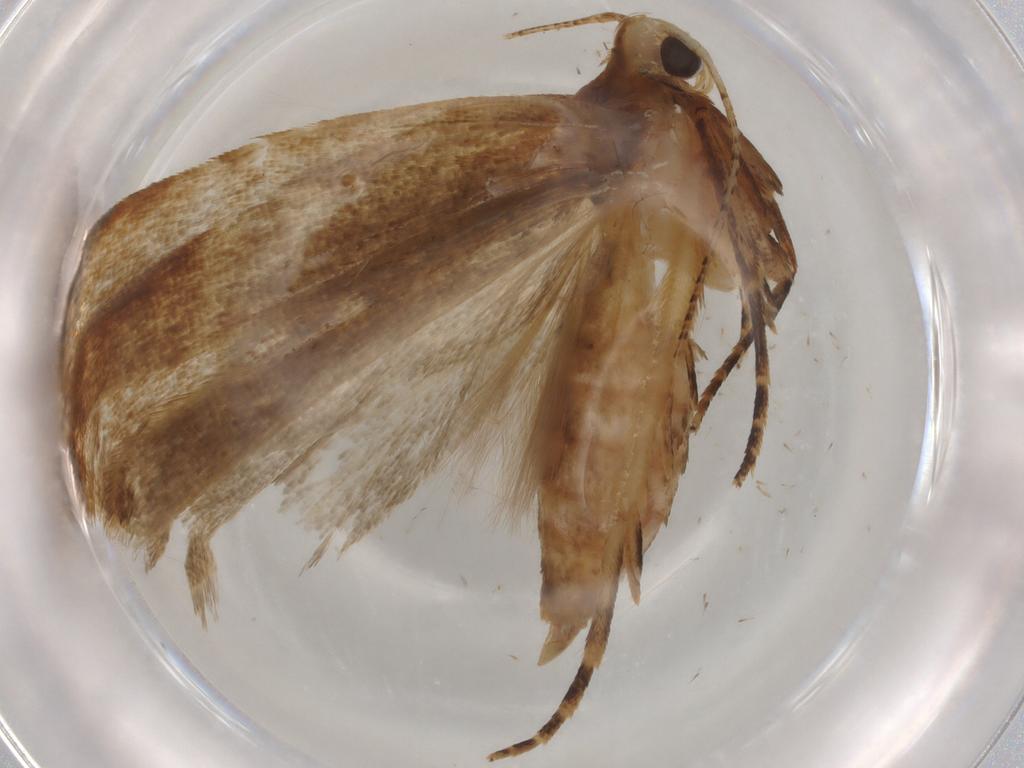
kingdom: Animalia
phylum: Arthropoda
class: Insecta
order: Lepidoptera
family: Gelechiidae
